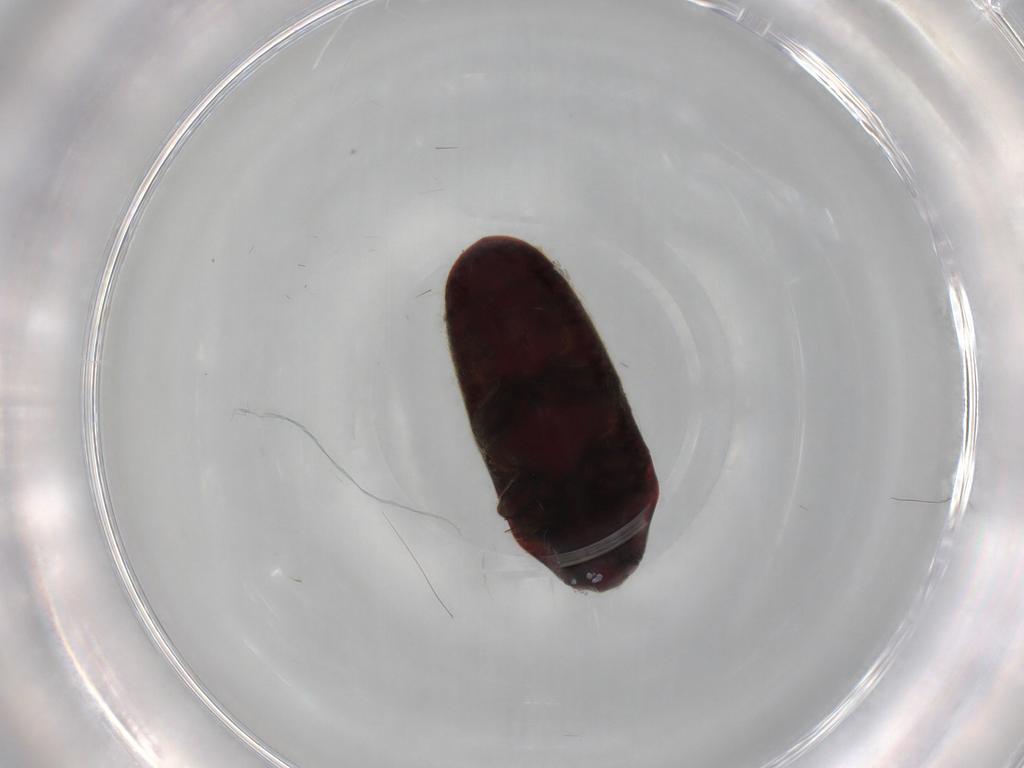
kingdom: Animalia
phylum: Arthropoda
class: Insecta
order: Coleoptera
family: Throscidae
